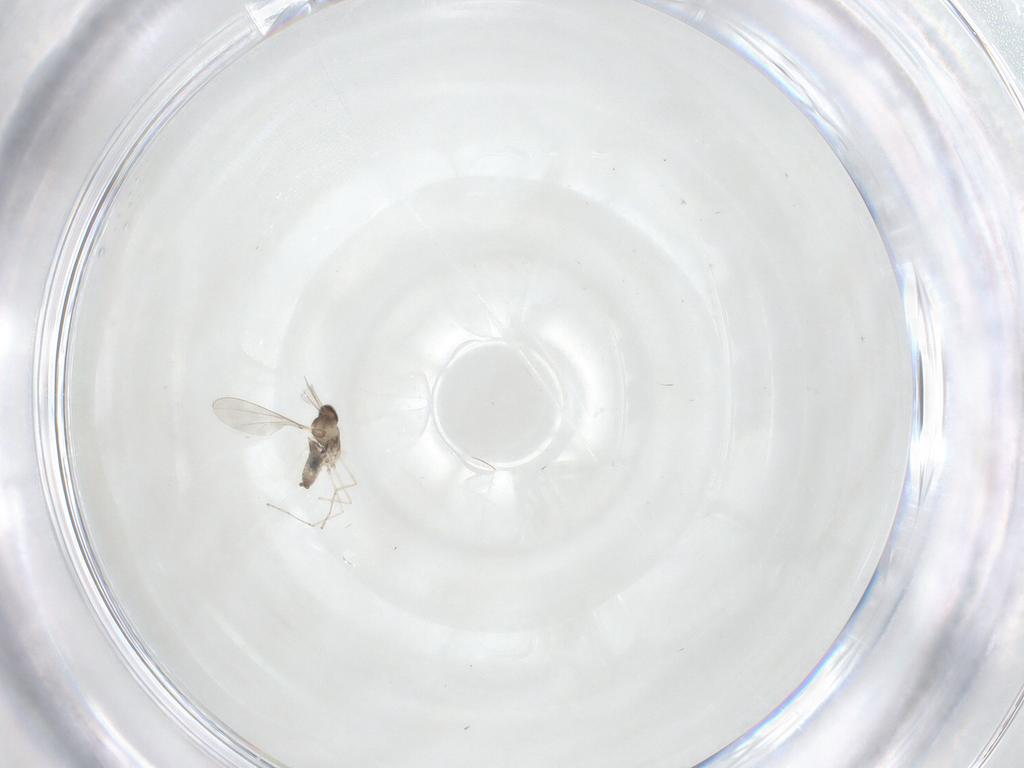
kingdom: Animalia
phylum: Arthropoda
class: Insecta
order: Diptera
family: Cecidomyiidae
